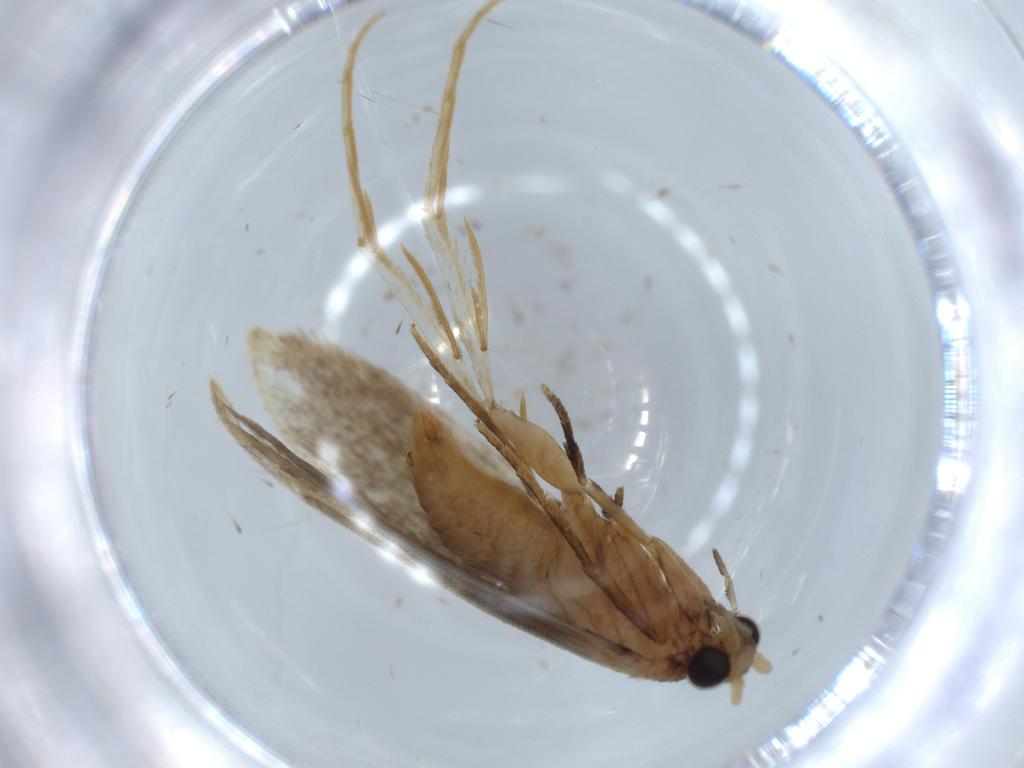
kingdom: Animalia
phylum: Arthropoda
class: Insecta
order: Lepidoptera
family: Tineidae
